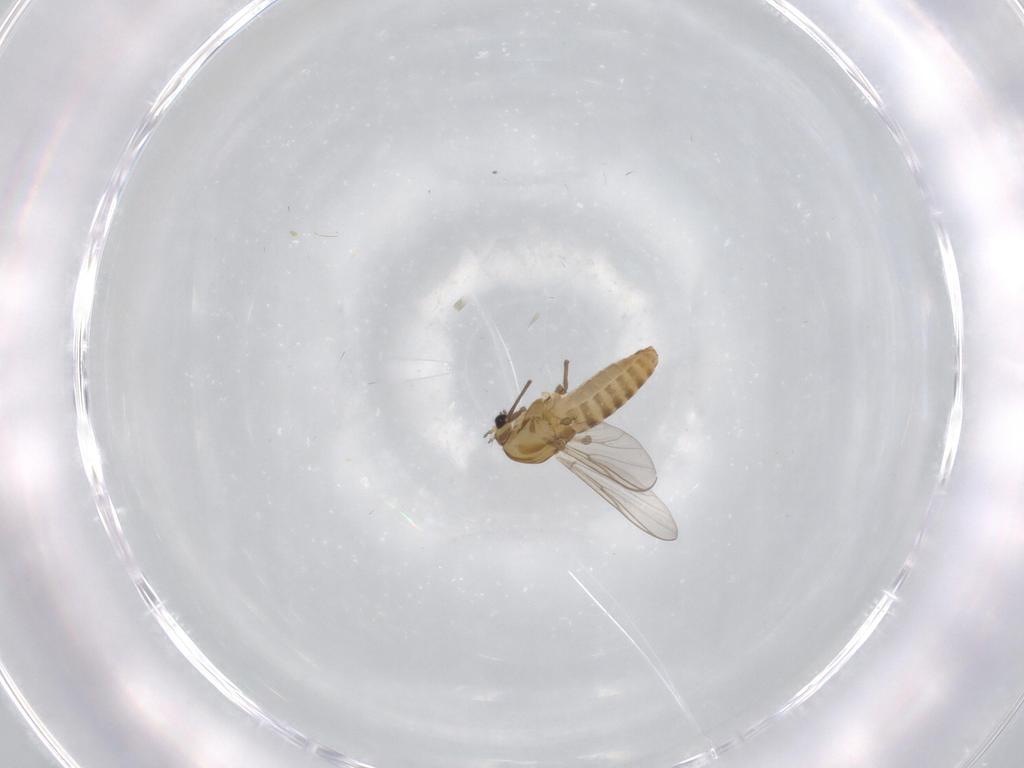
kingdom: Animalia
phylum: Arthropoda
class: Insecta
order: Diptera
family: Chironomidae
